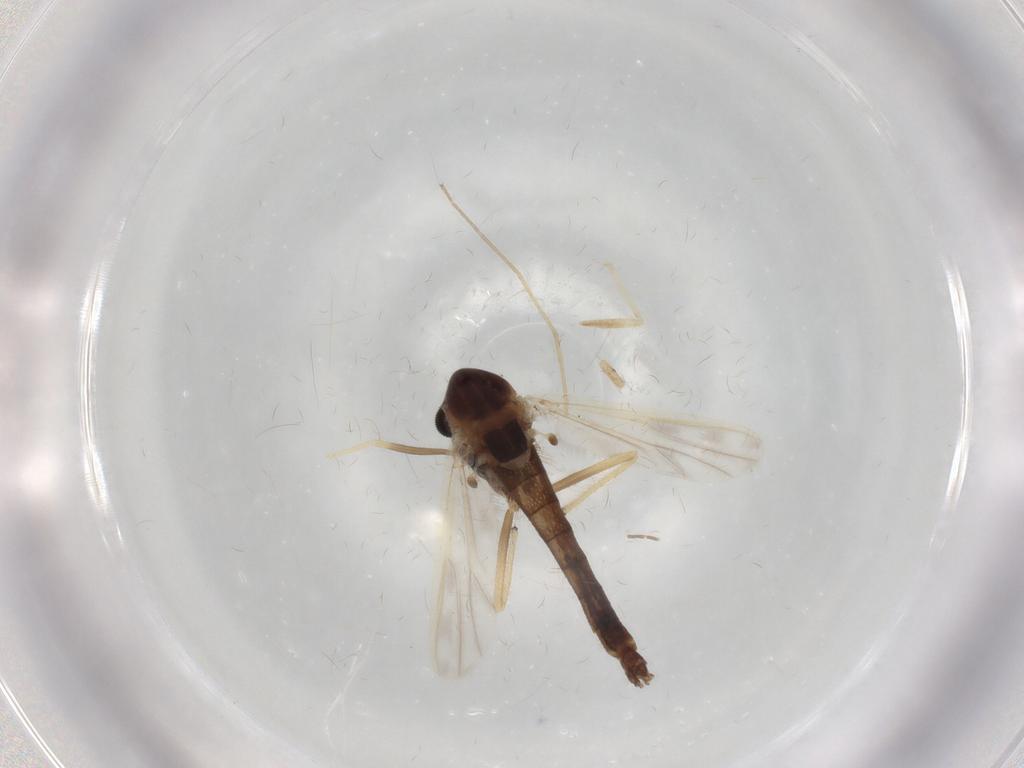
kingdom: Animalia
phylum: Arthropoda
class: Insecta
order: Diptera
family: Chironomidae
